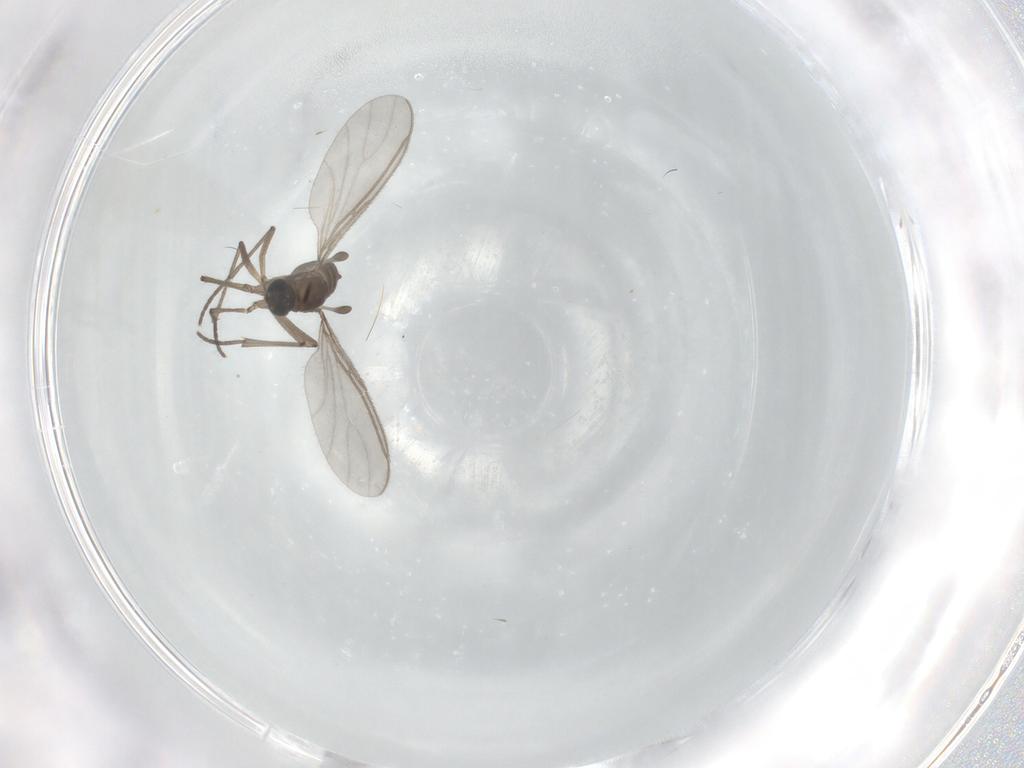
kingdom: Animalia
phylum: Arthropoda
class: Insecta
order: Diptera
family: Sciaridae
